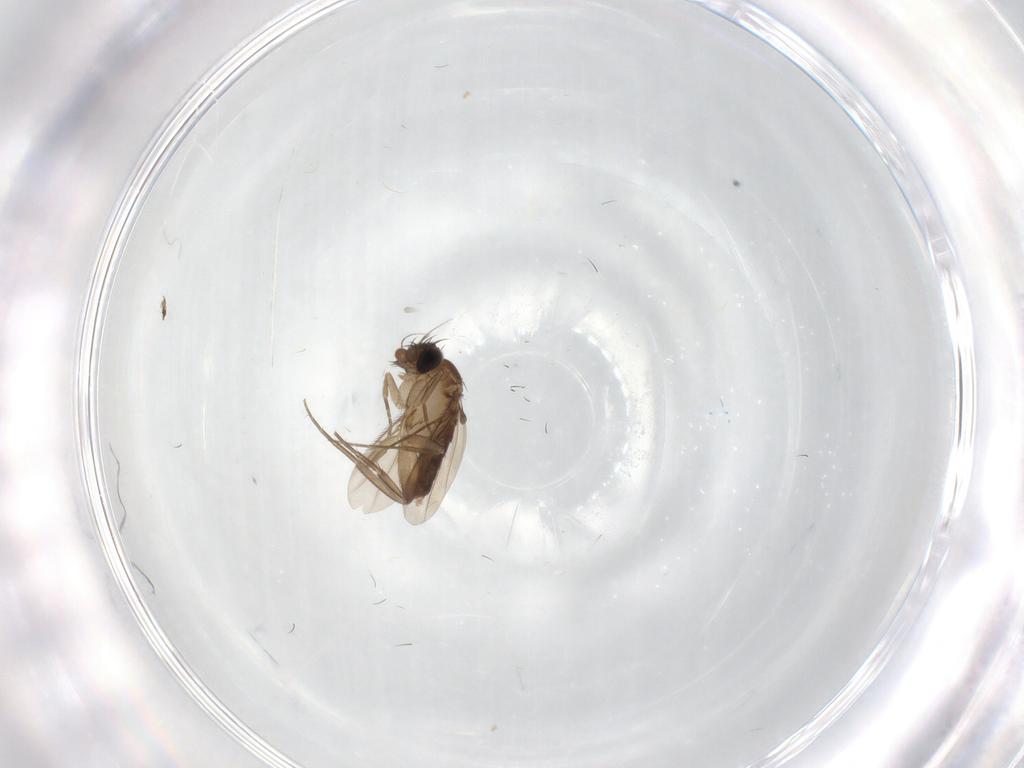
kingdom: Animalia
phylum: Arthropoda
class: Insecta
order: Diptera
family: Phoridae
